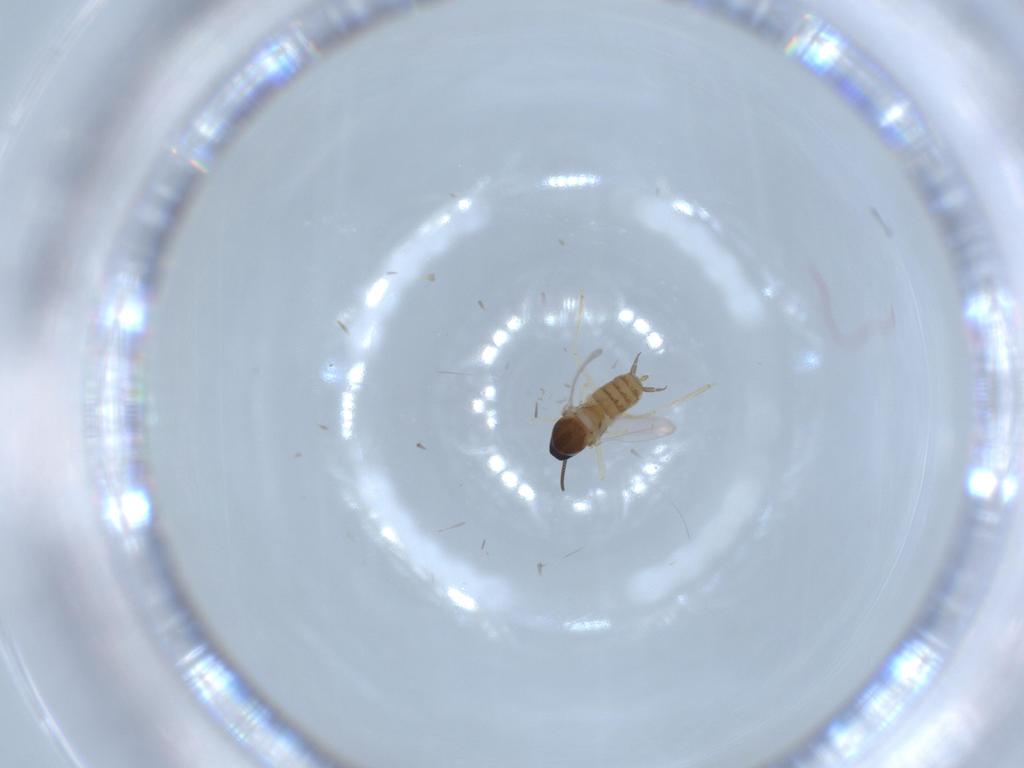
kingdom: Animalia
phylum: Arthropoda
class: Insecta
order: Diptera
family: Cecidomyiidae
